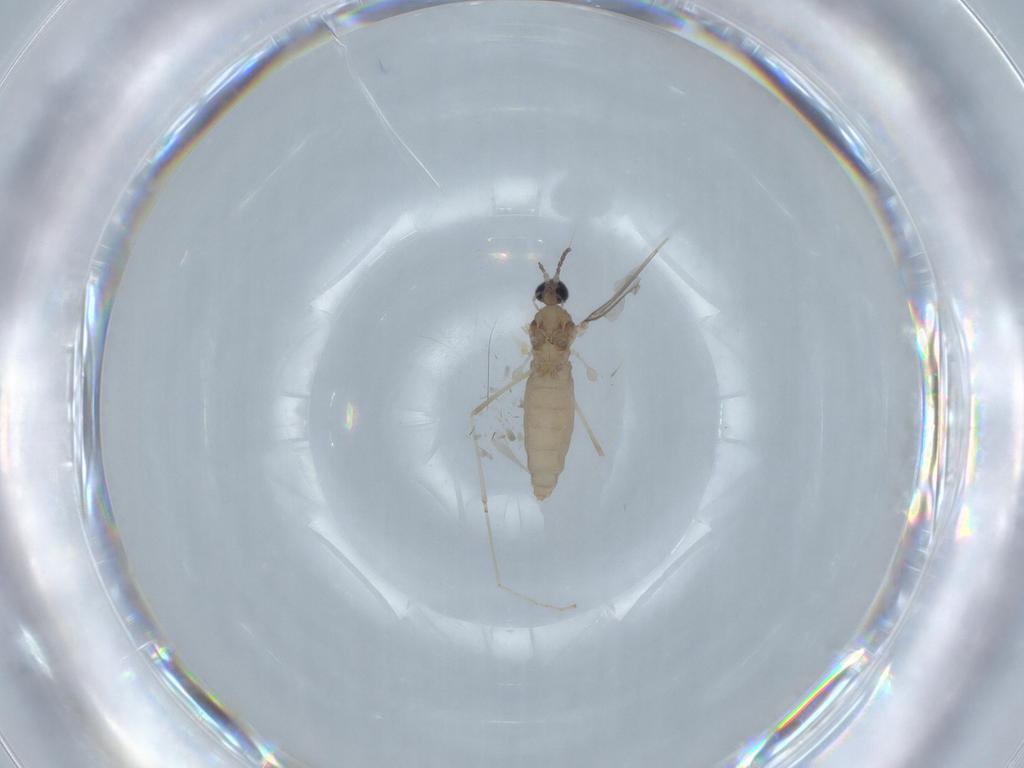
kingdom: Animalia
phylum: Arthropoda
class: Insecta
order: Diptera
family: Cecidomyiidae
